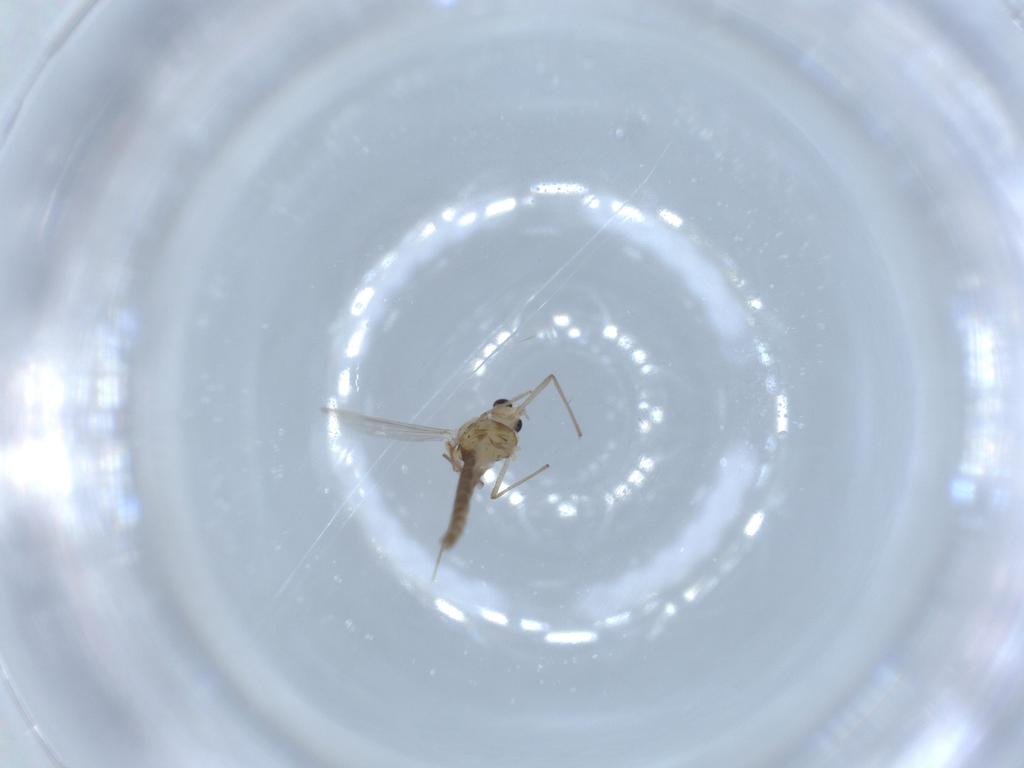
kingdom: Animalia
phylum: Arthropoda
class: Insecta
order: Diptera
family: Chironomidae
